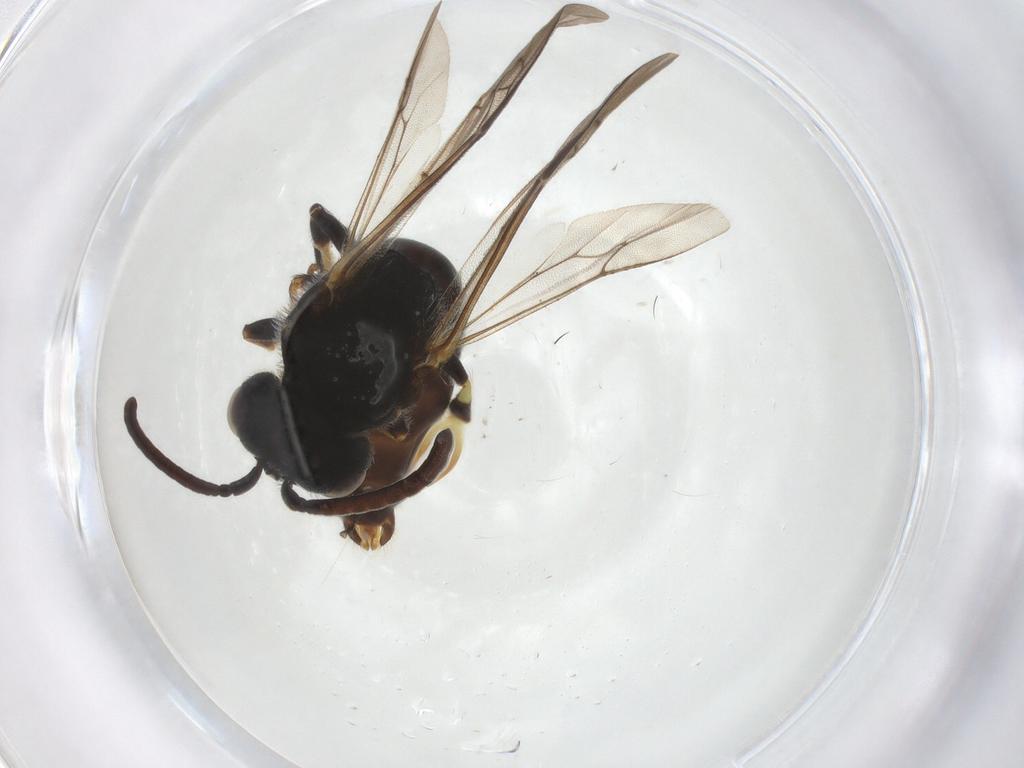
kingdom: Animalia
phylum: Arthropoda
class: Insecta
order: Hymenoptera
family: Colletidae
